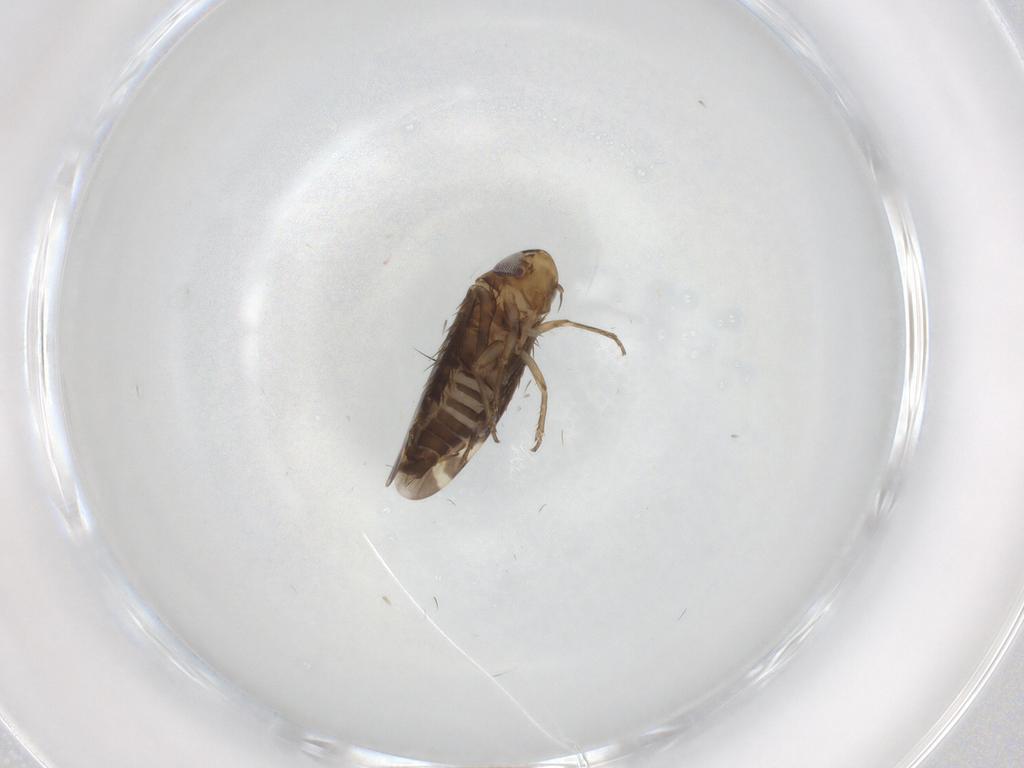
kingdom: Animalia
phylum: Arthropoda
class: Insecta
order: Hemiptera
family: Cicadellidae
